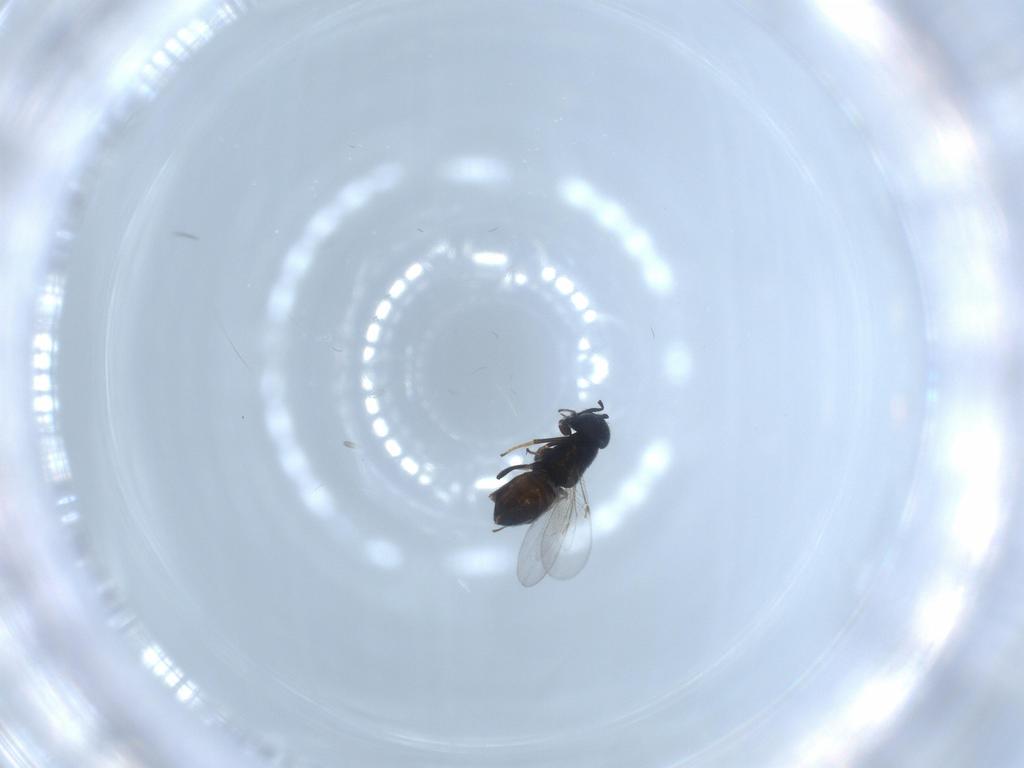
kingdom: Animalia
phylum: Arthropoda
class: Insecta
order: Hymenoptera
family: Encyrtidae
